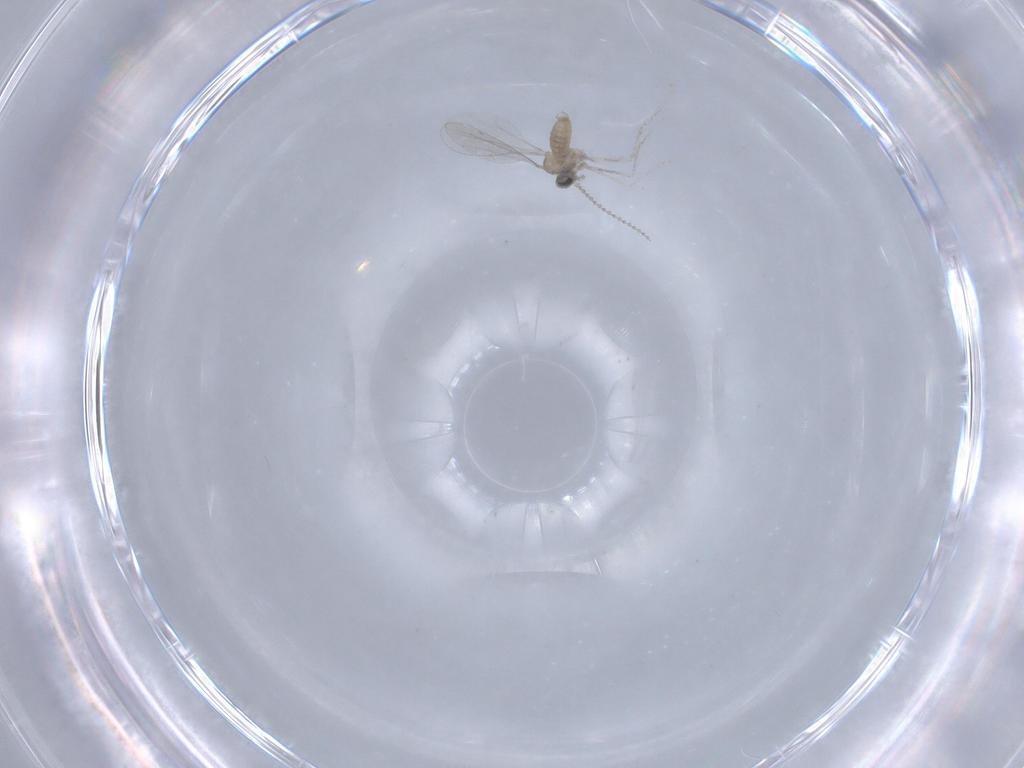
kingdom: Animalia
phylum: Arthropoda
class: Insecta
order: Diptera
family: Cecidomyiidae
